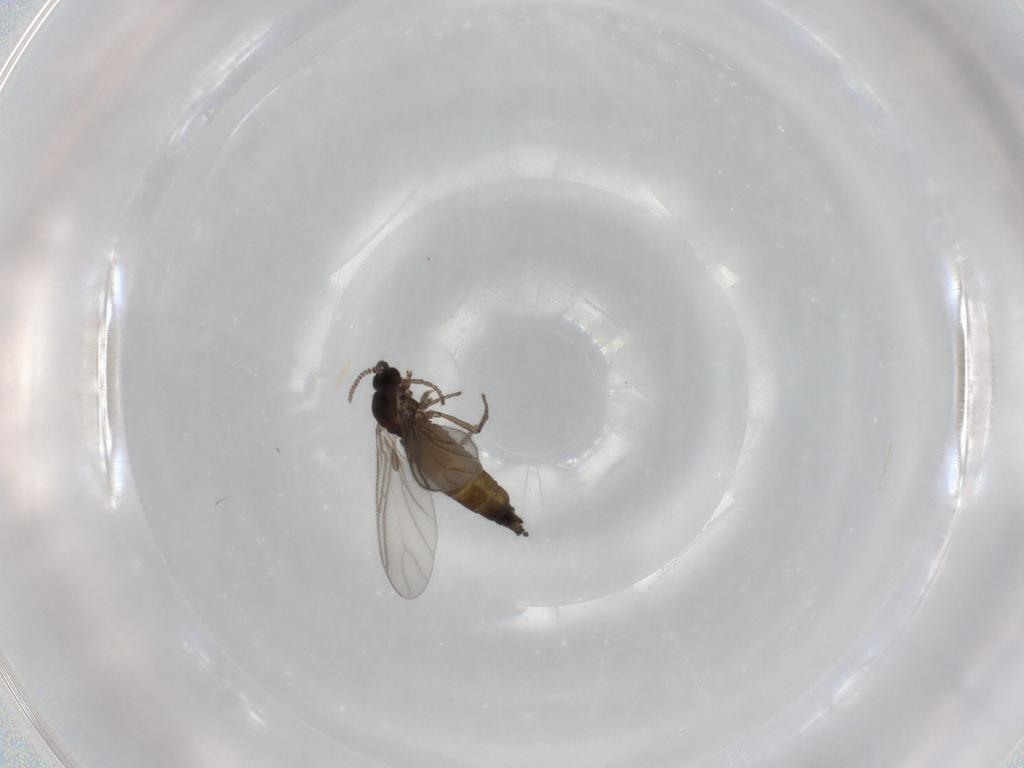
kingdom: Animalia
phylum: Arthropoda
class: Insecta
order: Diptera
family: Sciaridae
